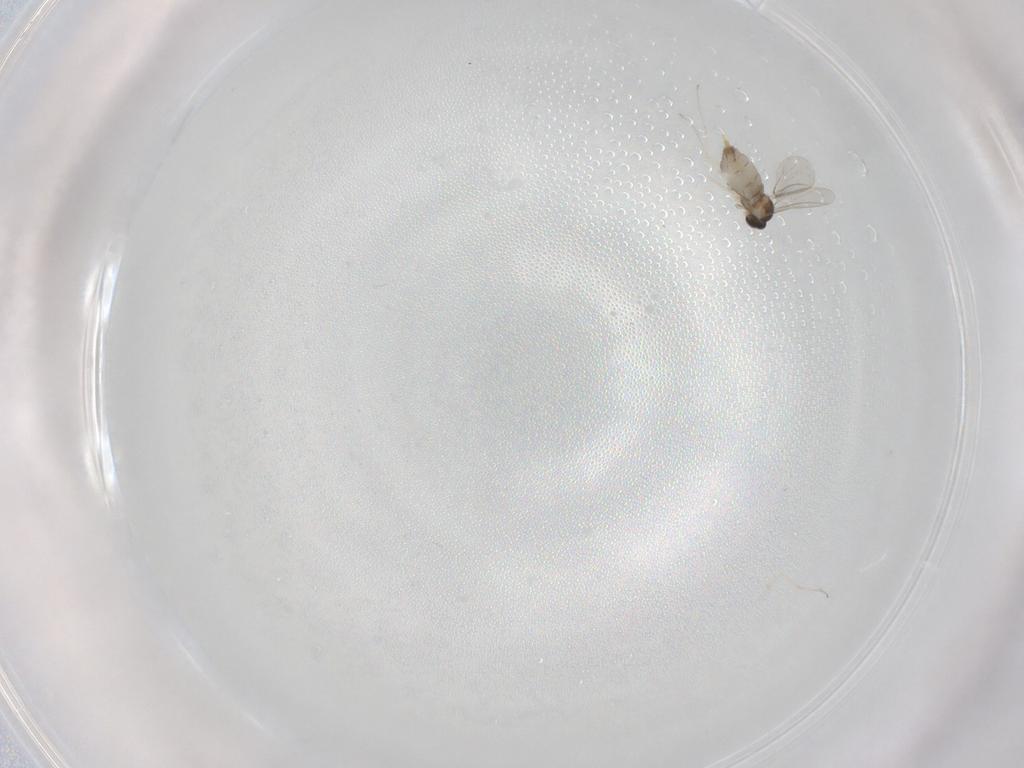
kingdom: Animalia
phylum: Arthropoda
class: Insecta
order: Diptera
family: Cecidomyiidae
